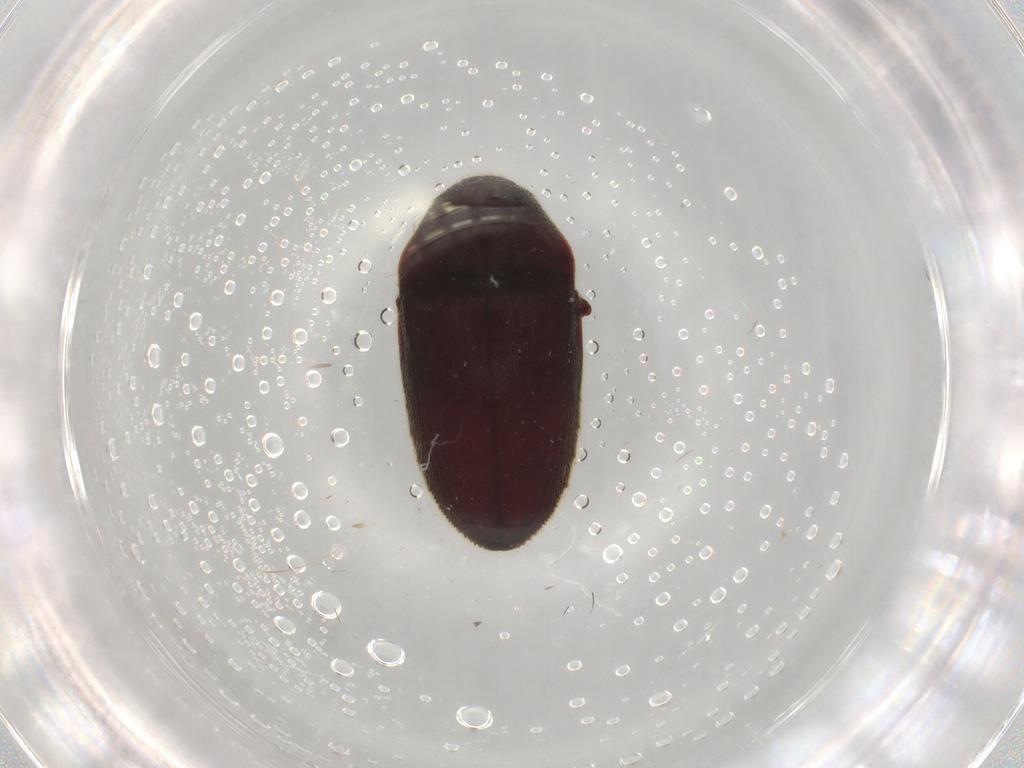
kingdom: Animalia
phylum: Arthropoda
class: Insecta
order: Coleoptera
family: Throscidae
